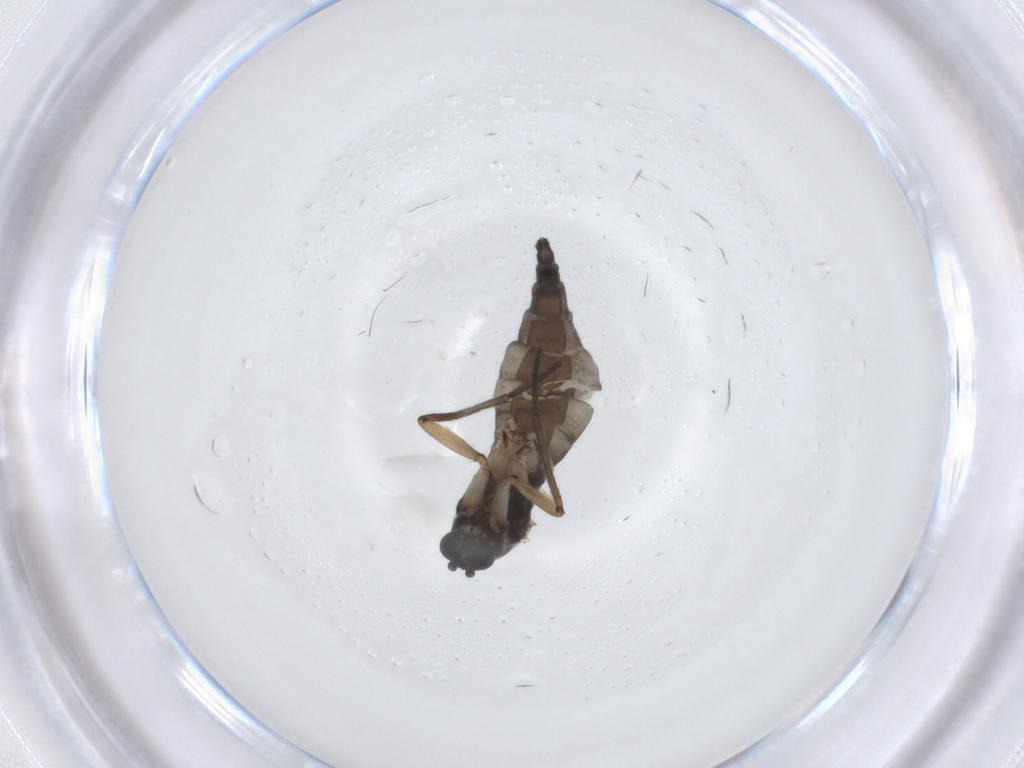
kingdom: Animalia
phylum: Arthropoda
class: Insecta
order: Diptera
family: Sciaridae
